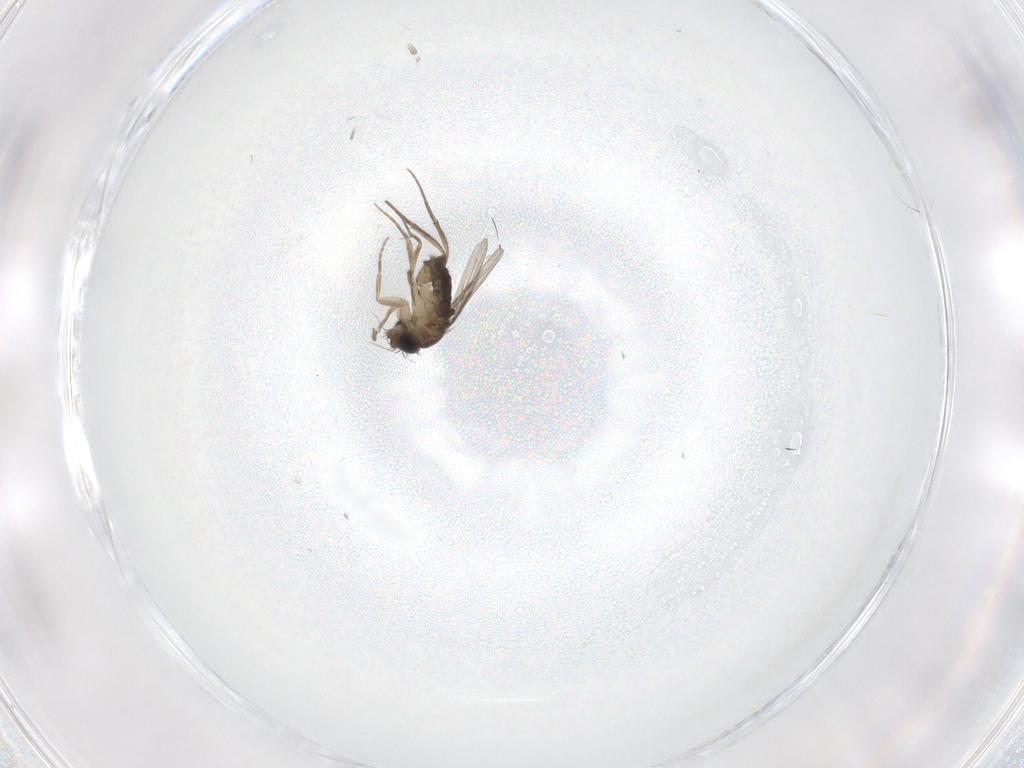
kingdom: Animalia
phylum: Arthropoda
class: Insecta
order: Diptera
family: Phoridae
